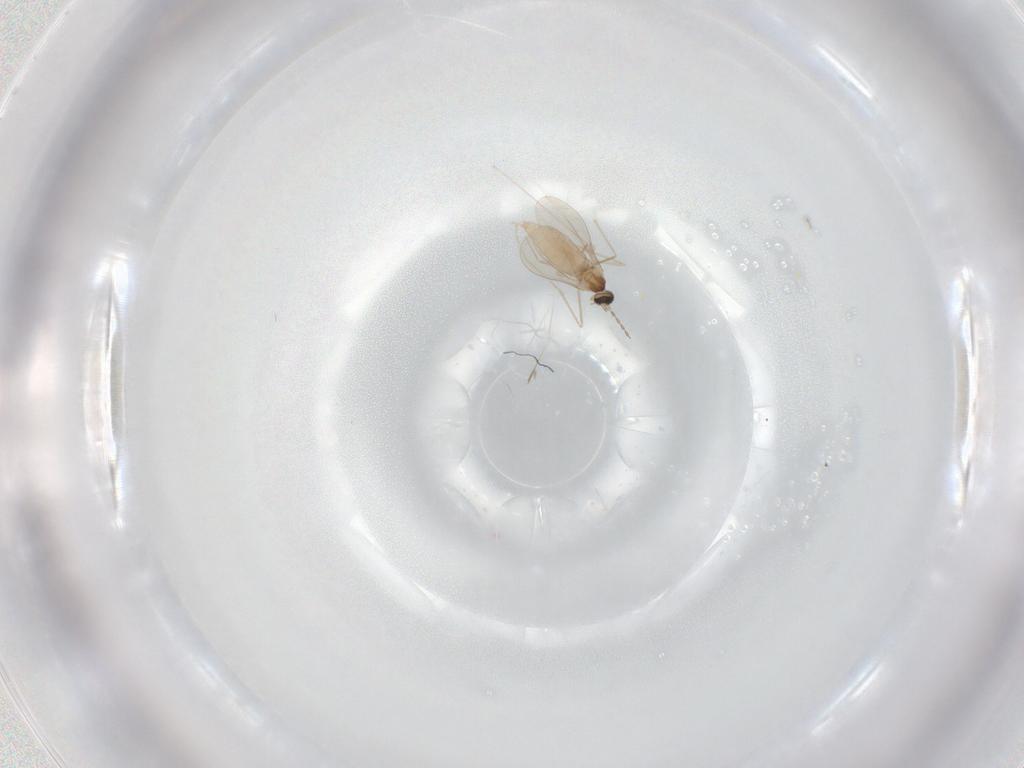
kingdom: Animalia
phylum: Arthropoda
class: Insecta
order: Diptera
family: Cecidomyiidae
